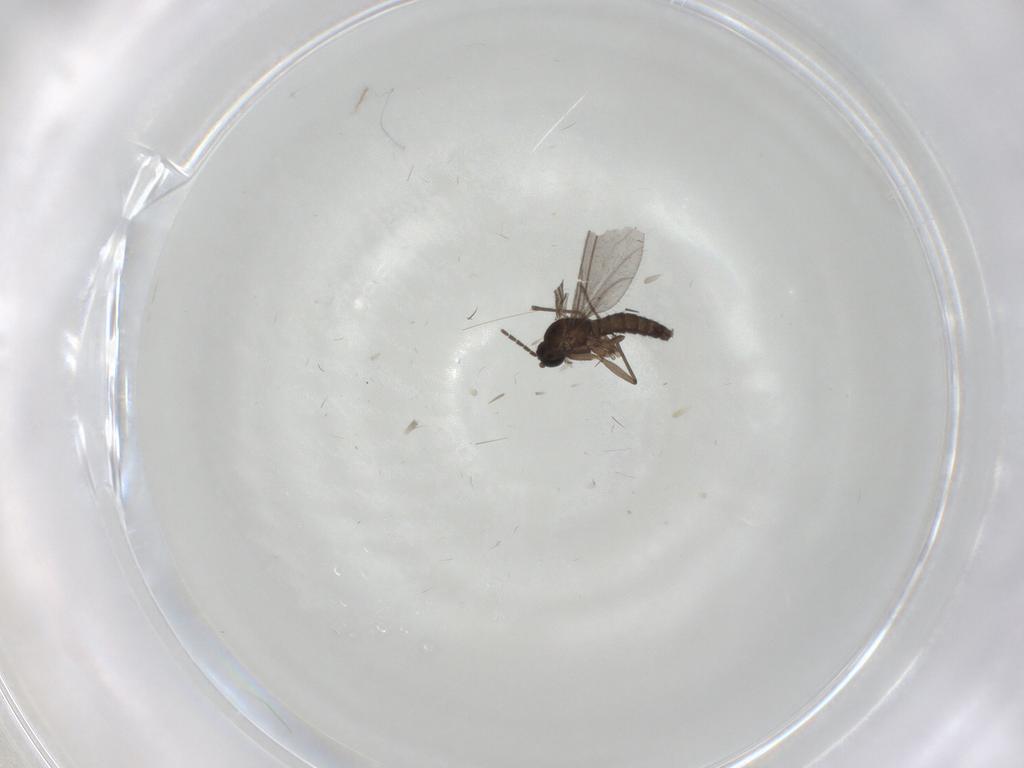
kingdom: Animalia
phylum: Arthropoda
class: Insecta
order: Diptera
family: Sciaridae
